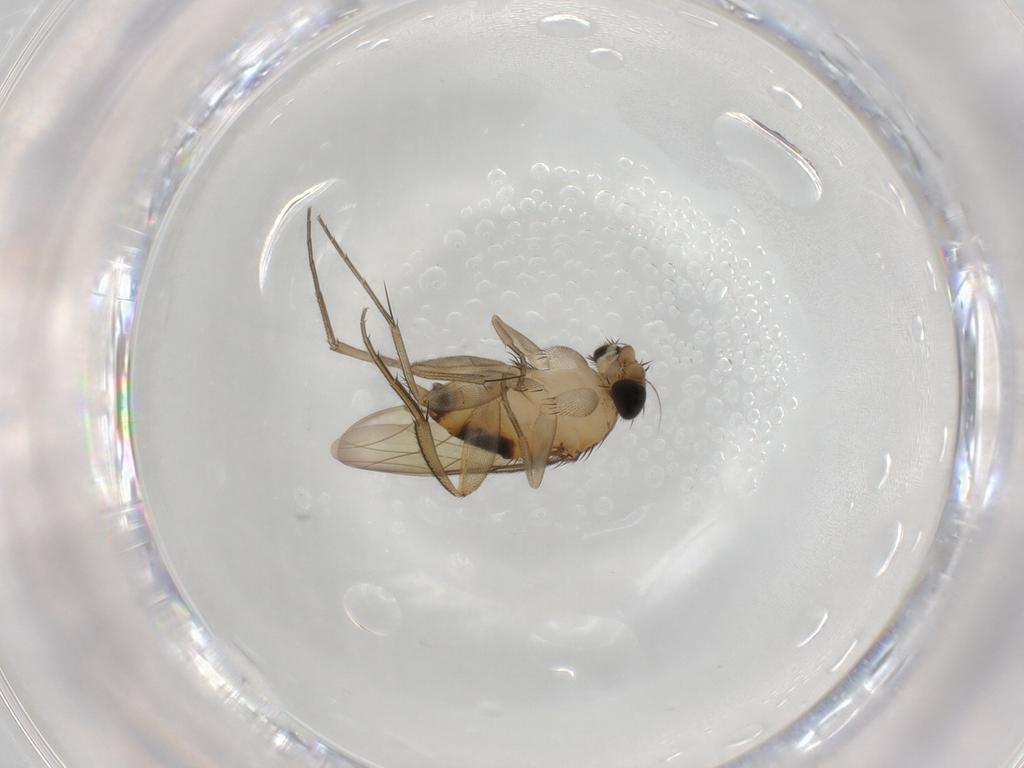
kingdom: Animalia
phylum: Arthropoda
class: Insecta
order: Diptera
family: Phoridae
